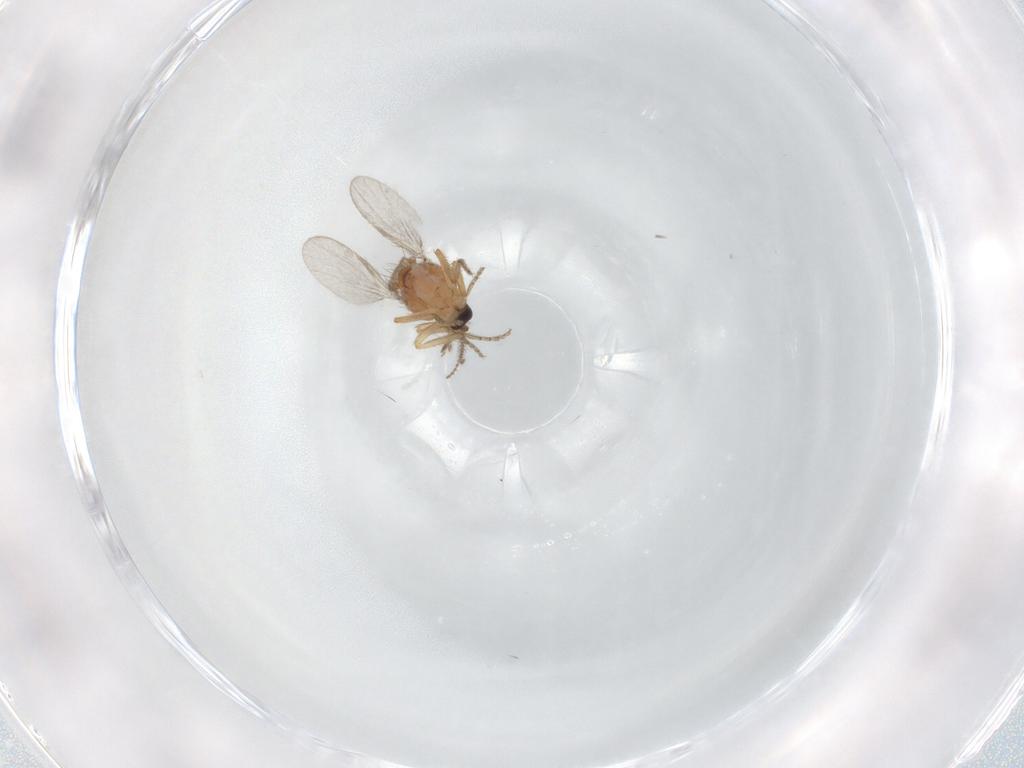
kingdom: Animalia
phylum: Arthropoda
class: Insecta
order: Diptera
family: Ceratopogonidae
